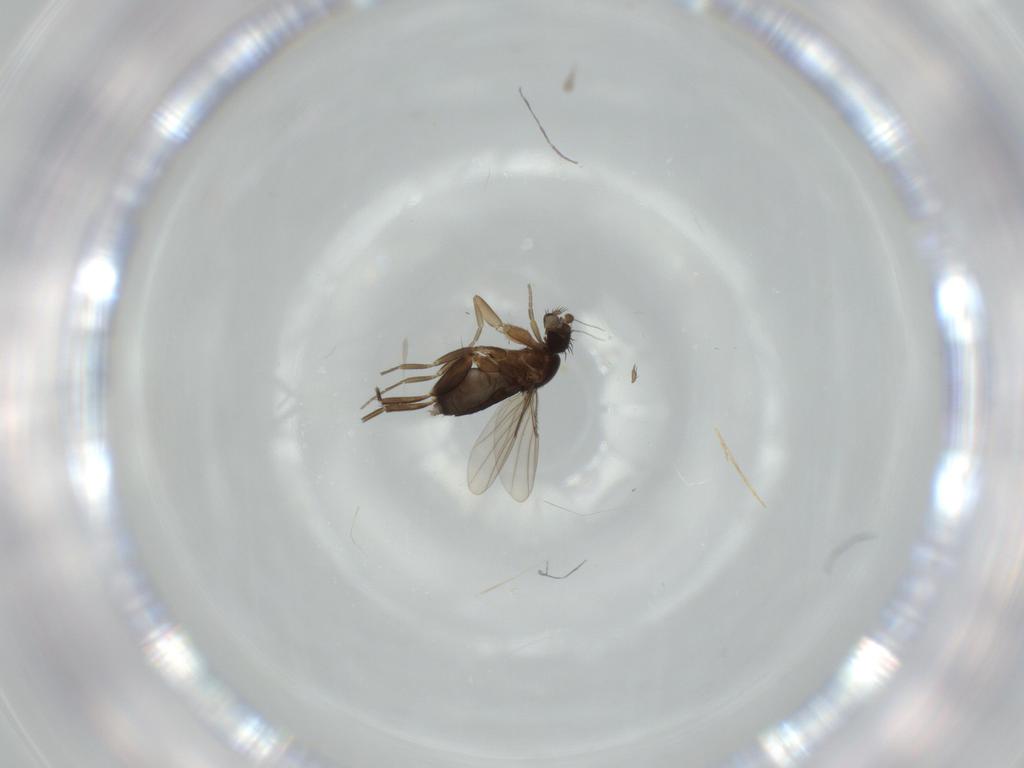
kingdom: Animalia
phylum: Arthropoda
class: Insecta
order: Diptera
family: Phoridae
